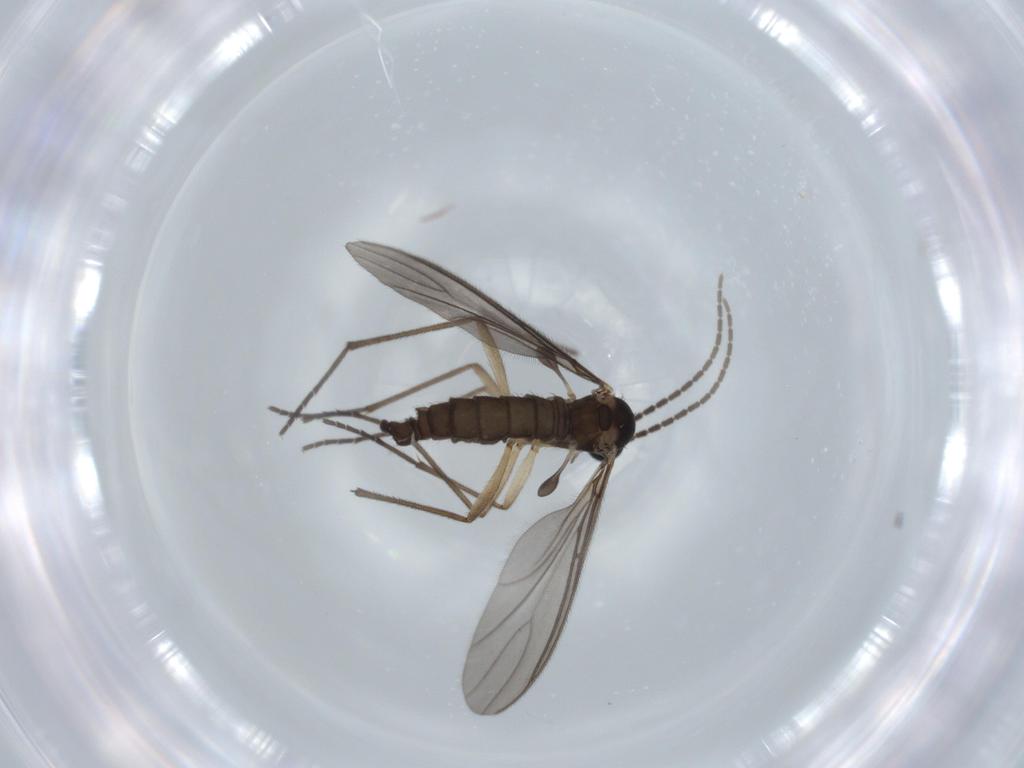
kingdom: Animalia
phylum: Arthropoda
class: Insecta
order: Diptera
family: Sciaridae
